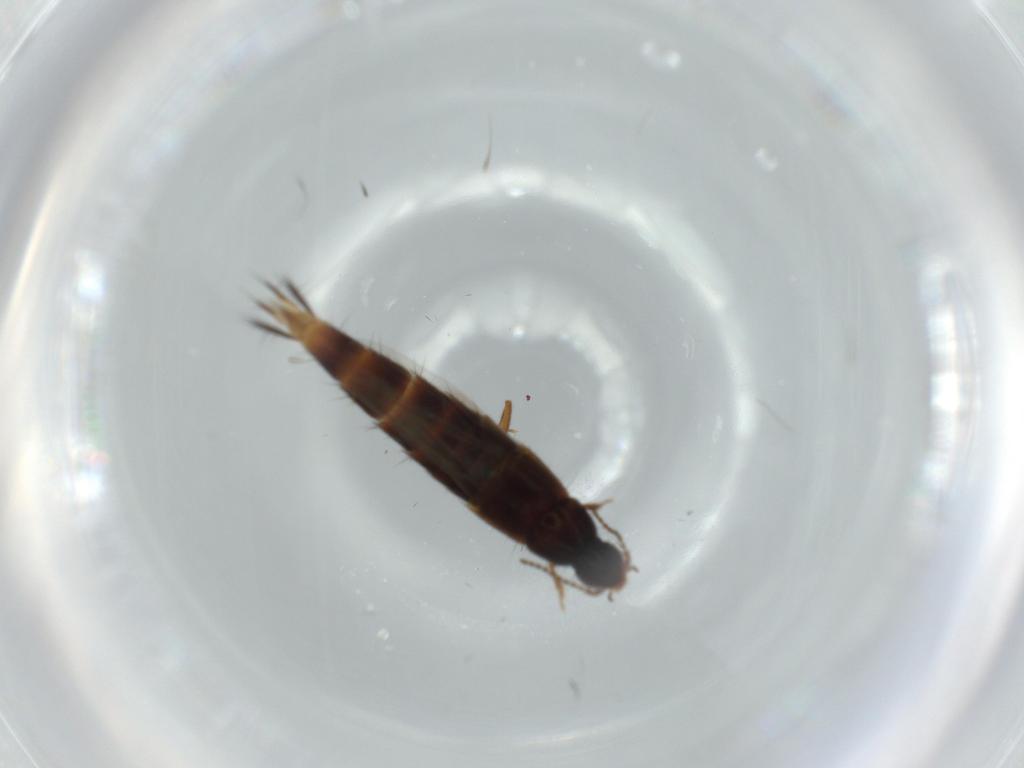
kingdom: Animalia
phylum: Arthropoda
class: Insecta
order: Coleoptera
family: Staphylinidae
